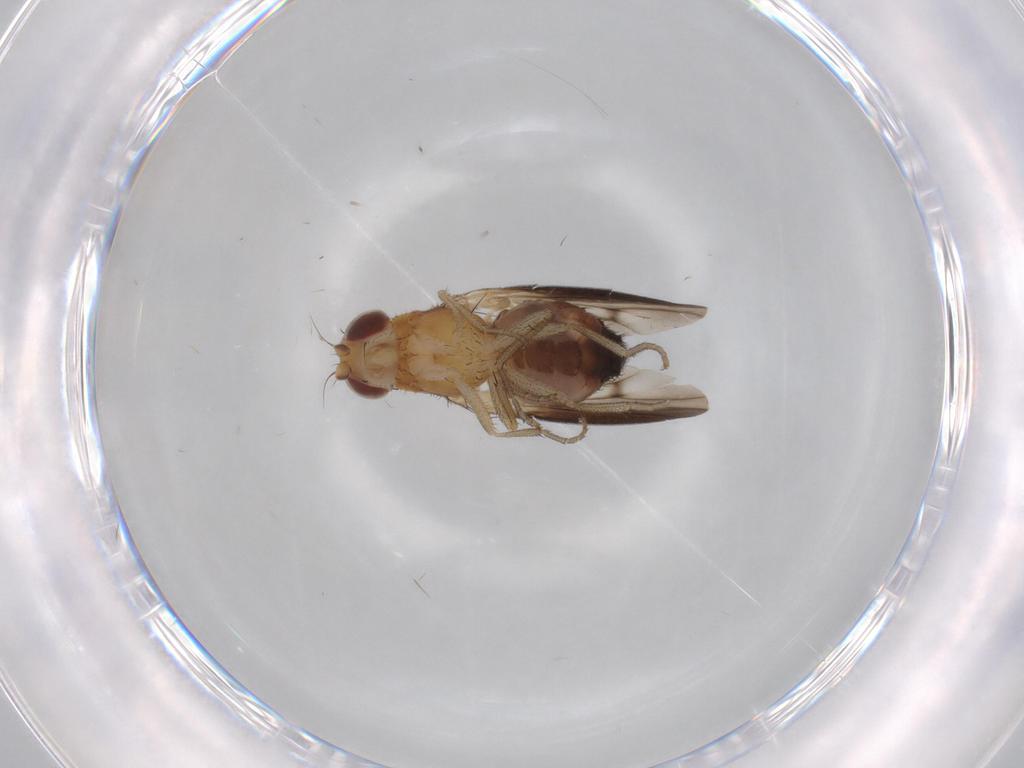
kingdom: Animalia
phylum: Arthropoda
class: Insecta
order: Diptera
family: Heleomyzidae
